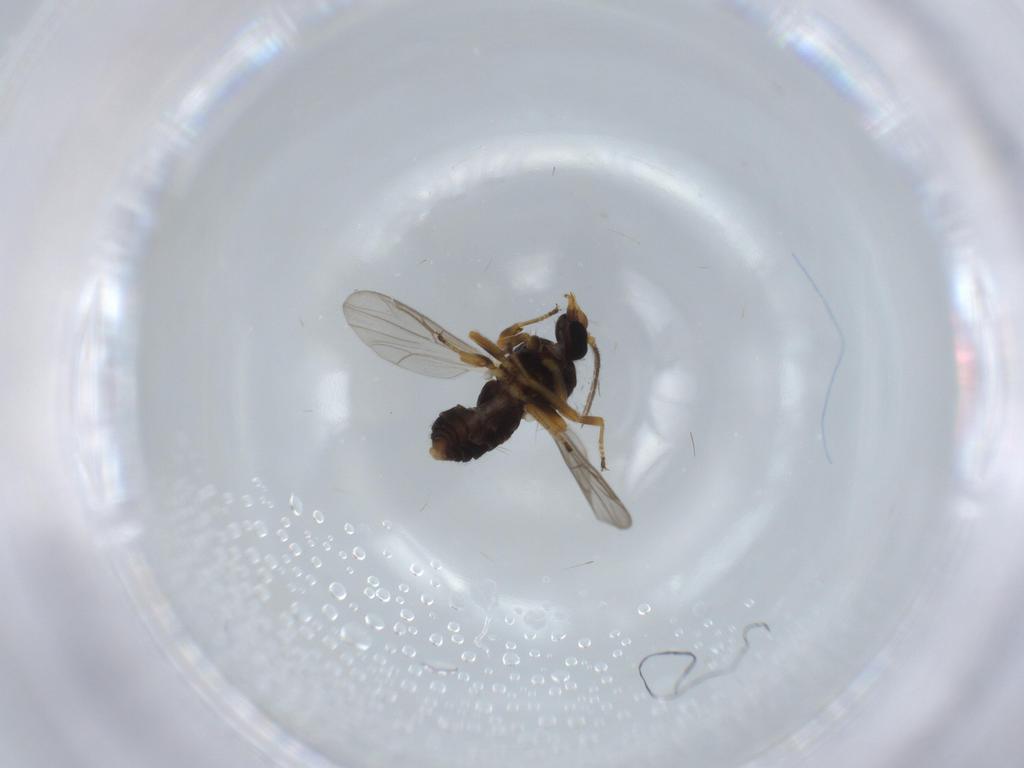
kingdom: Animalia
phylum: Arthropoda
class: Insecta
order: Diptera
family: Ceratopogonidae
